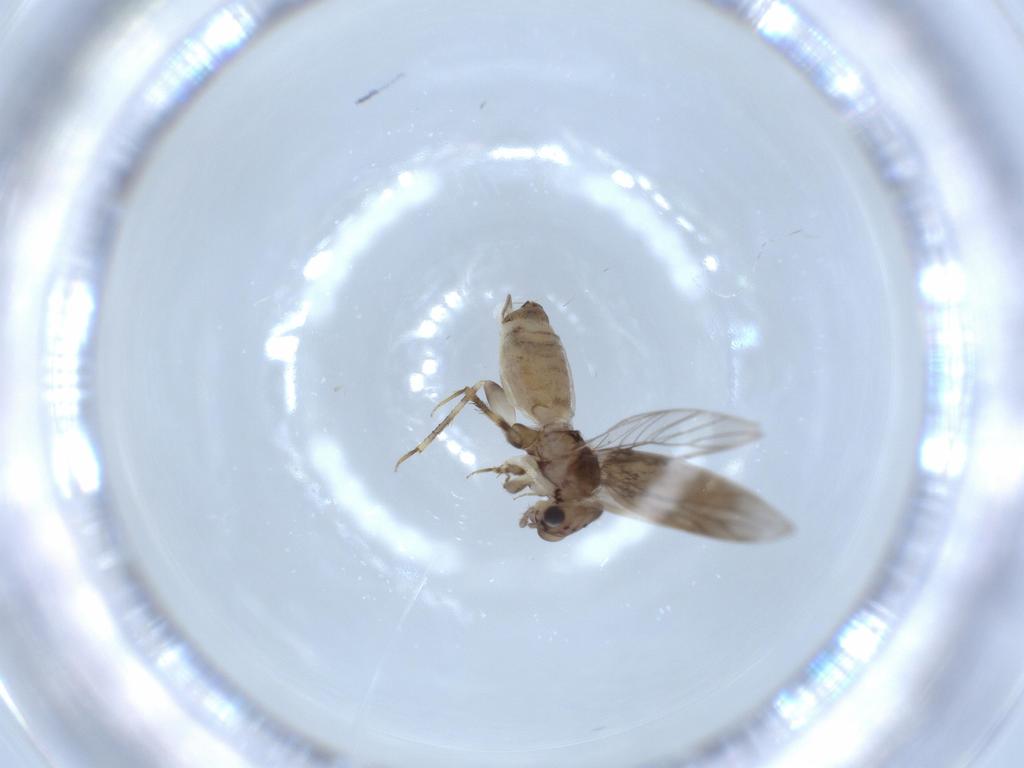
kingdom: Animalia
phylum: Arthropoda
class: Insecta
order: Psocodea
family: Lepidopsocidae
